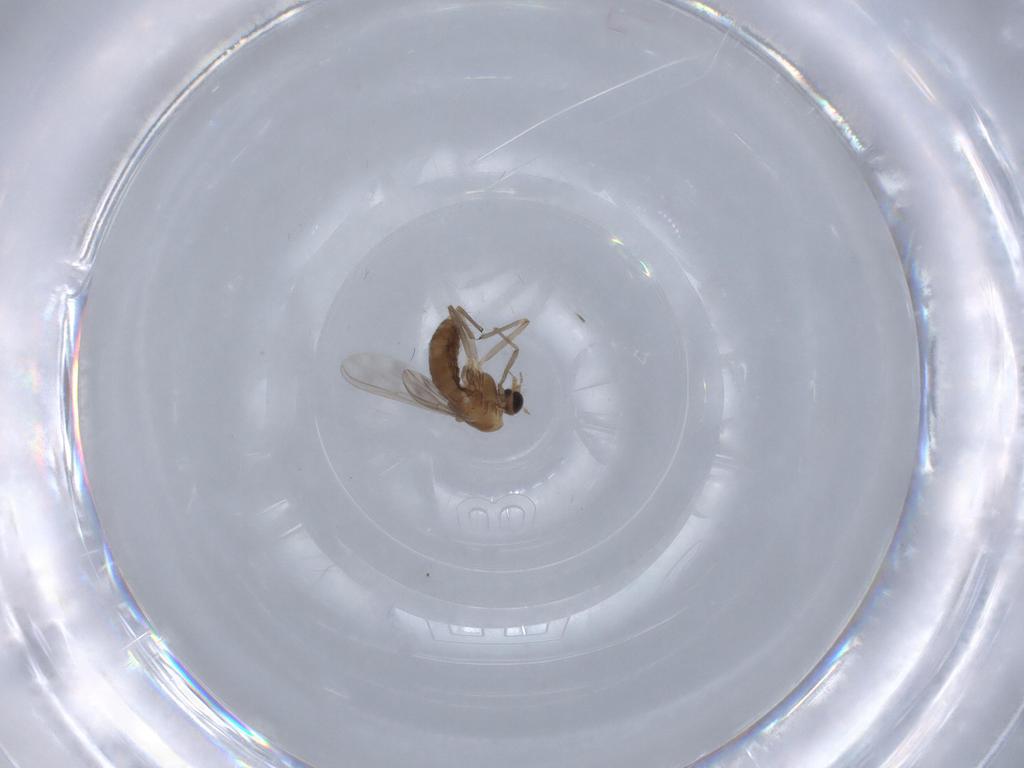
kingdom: Animalia
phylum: Arthropoda
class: Insecta
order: Diptera
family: Chironomidae
